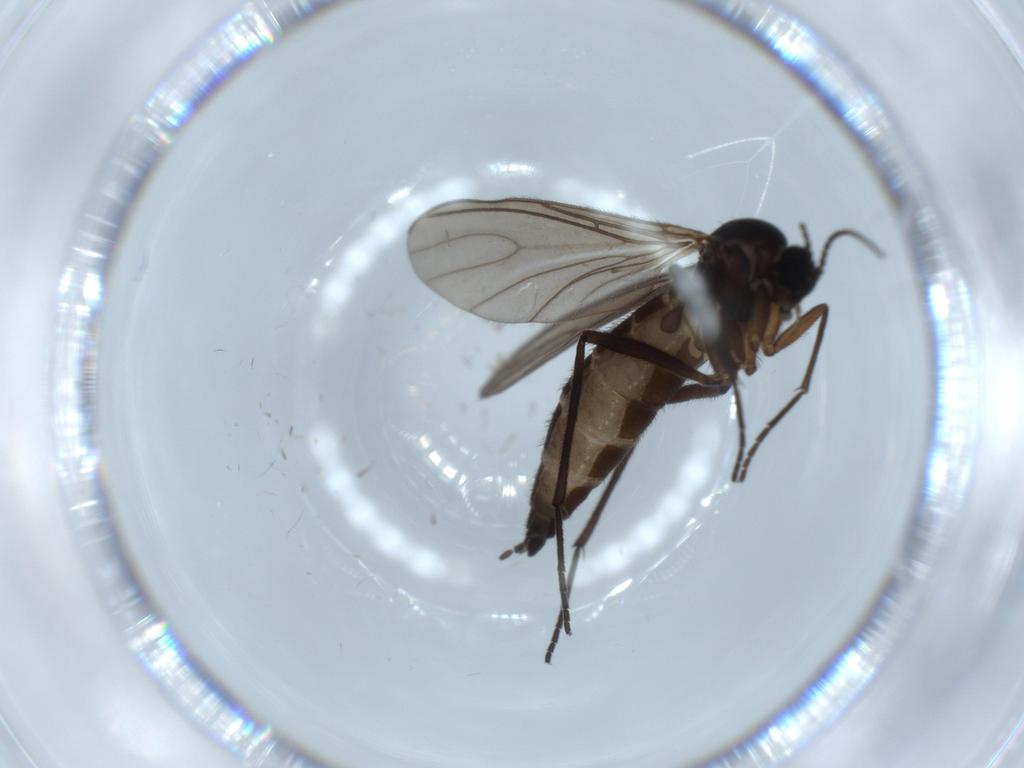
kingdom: Animalia
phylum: Arthropoda
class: Insecta
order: Diptera
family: Sciaridae
